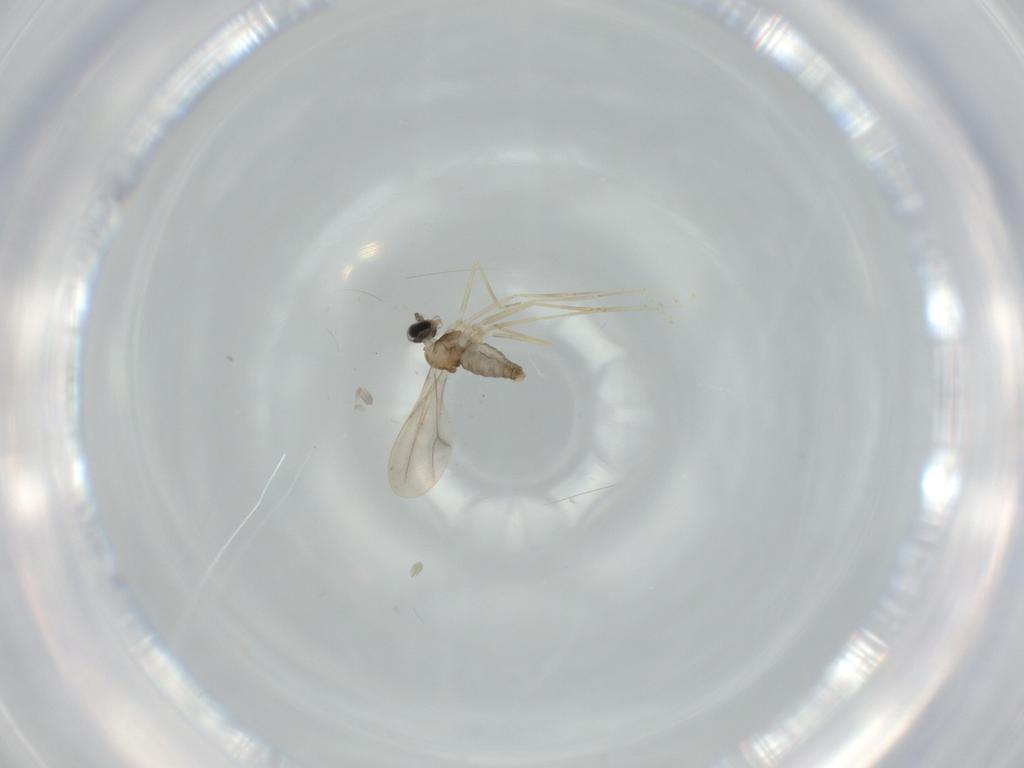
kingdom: Animalia
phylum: Arthropoda
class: Insecta
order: Diptera
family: Cecidomyiidae
